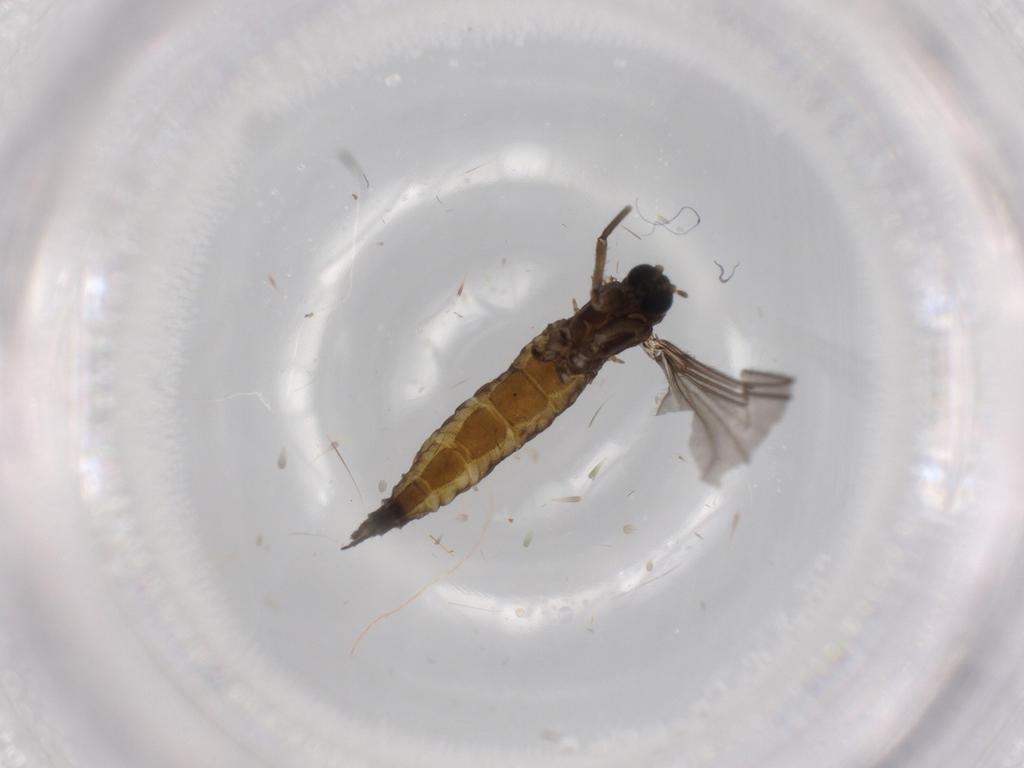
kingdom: Animalia
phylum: Arthropoda
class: Insecta
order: Diptera
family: Sciaridae
